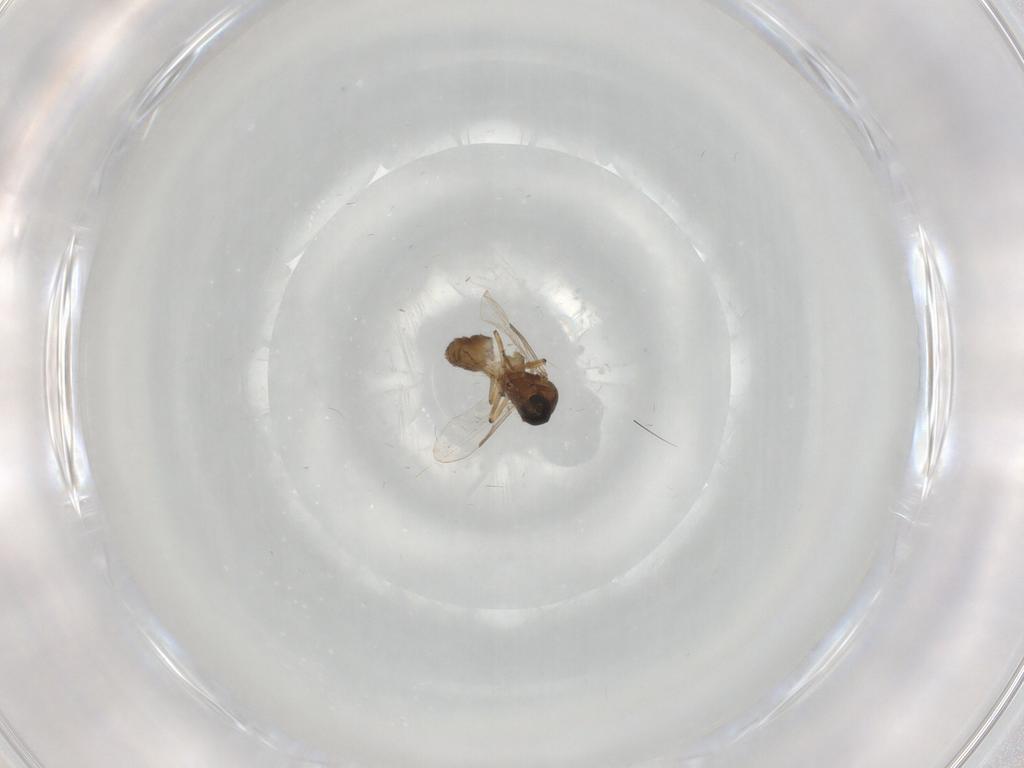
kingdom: Animalia
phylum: Arthropoda
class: Insecta
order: Diptera
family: Ceratopogonidae
